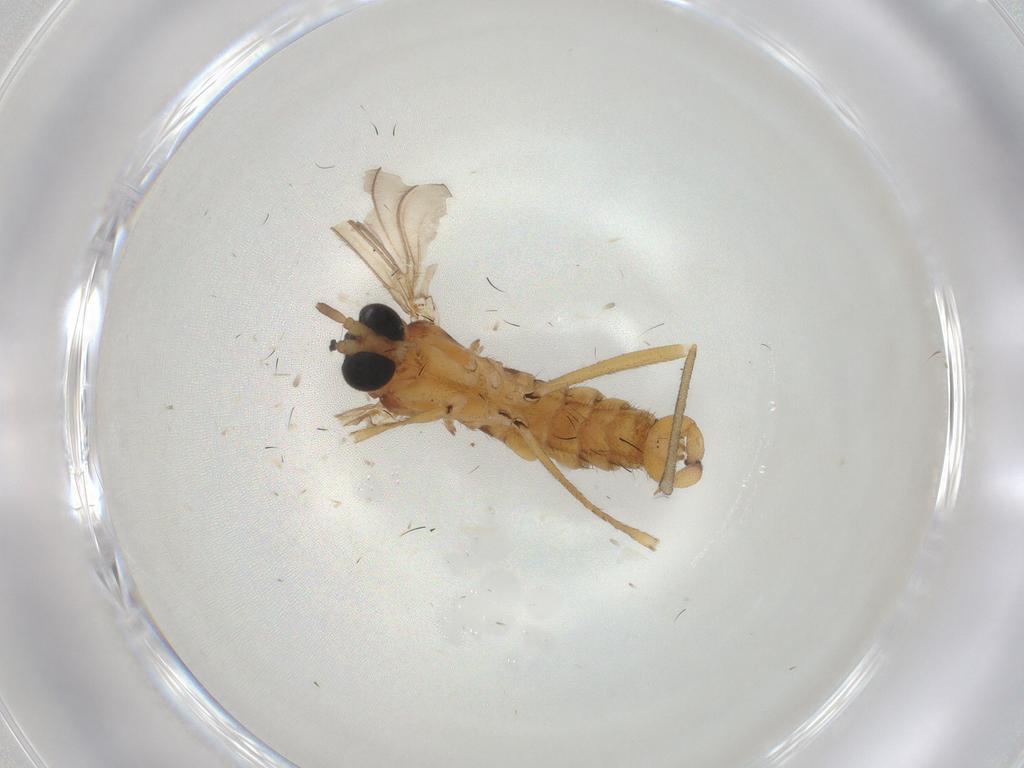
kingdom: Animalia
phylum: Arthropoda
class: Insecta
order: Diptera
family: Sciaridae
